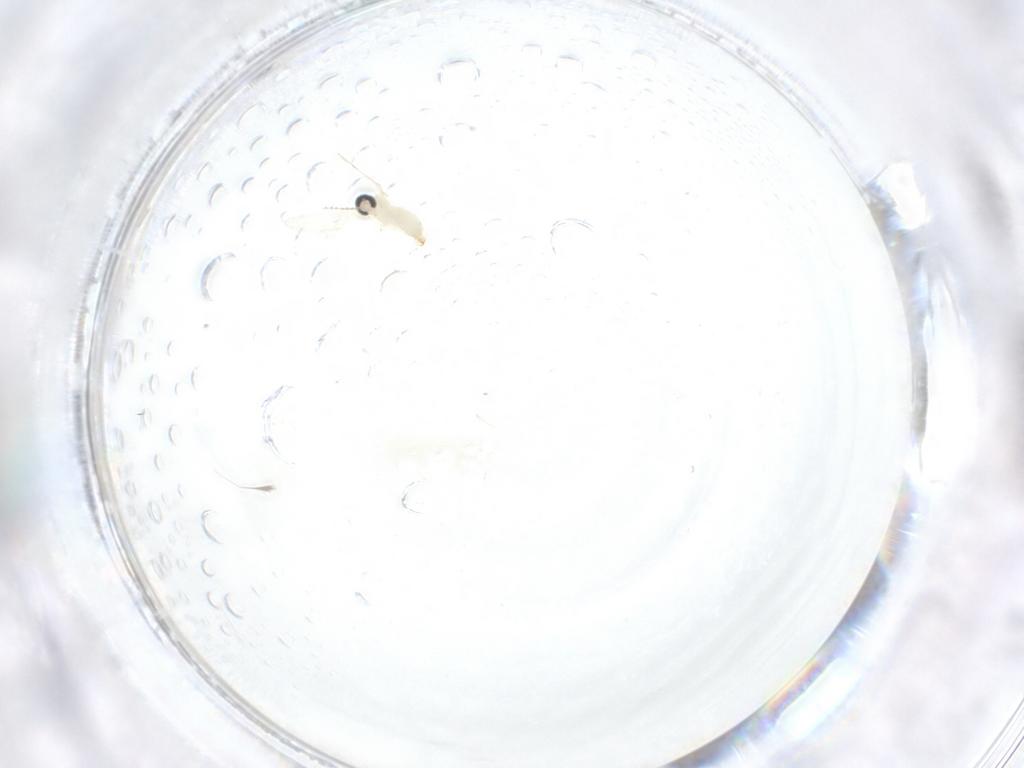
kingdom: Animalia
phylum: Arthropoda
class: Insecta
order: Diptera
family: Cecidomyiidae
